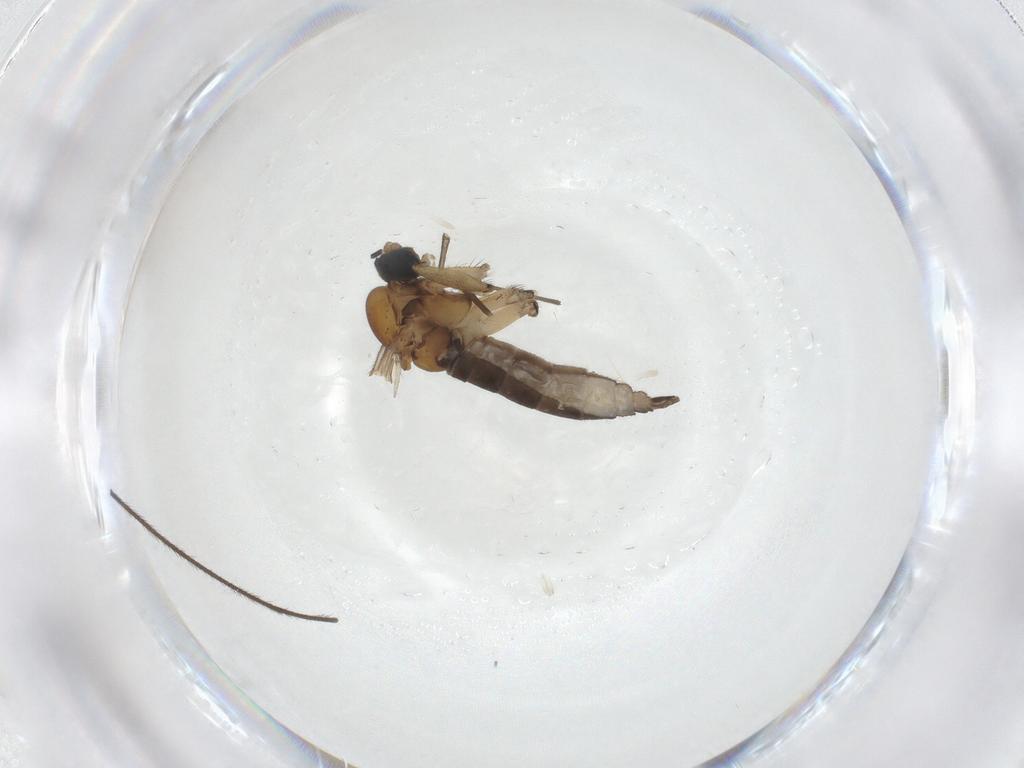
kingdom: Animalia
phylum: Arthropoda
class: Insecta
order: Diptera
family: Sciaridae
